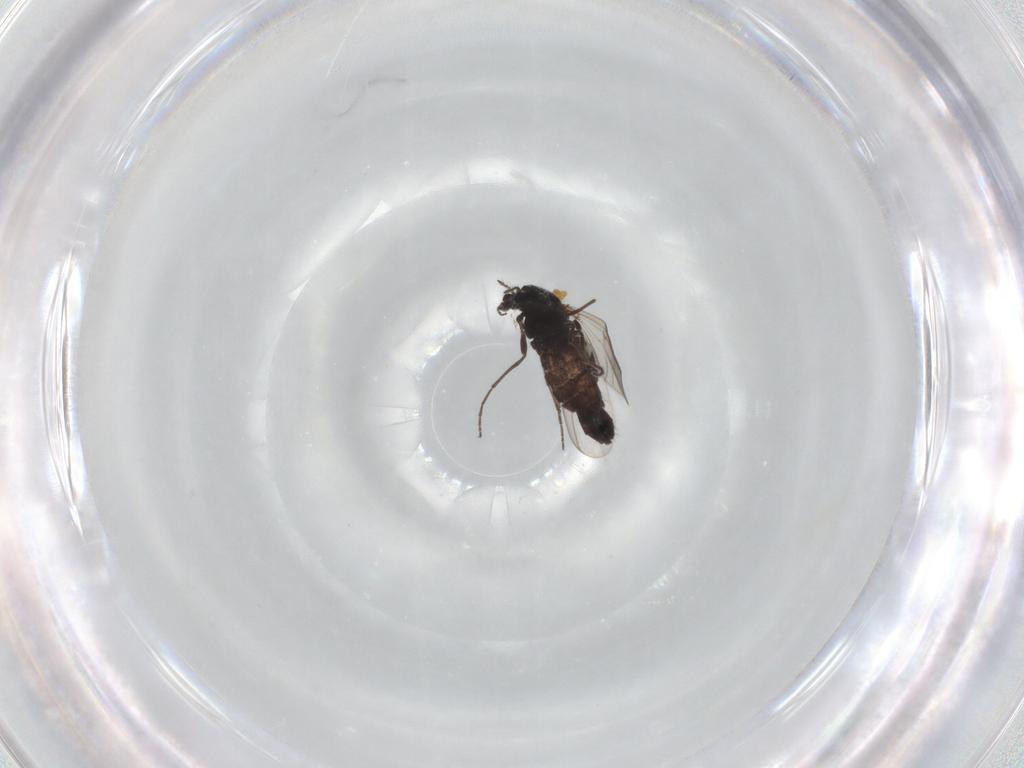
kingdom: Animalia
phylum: Arthropoda
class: Insecta
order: Diptera
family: Chironomidae
